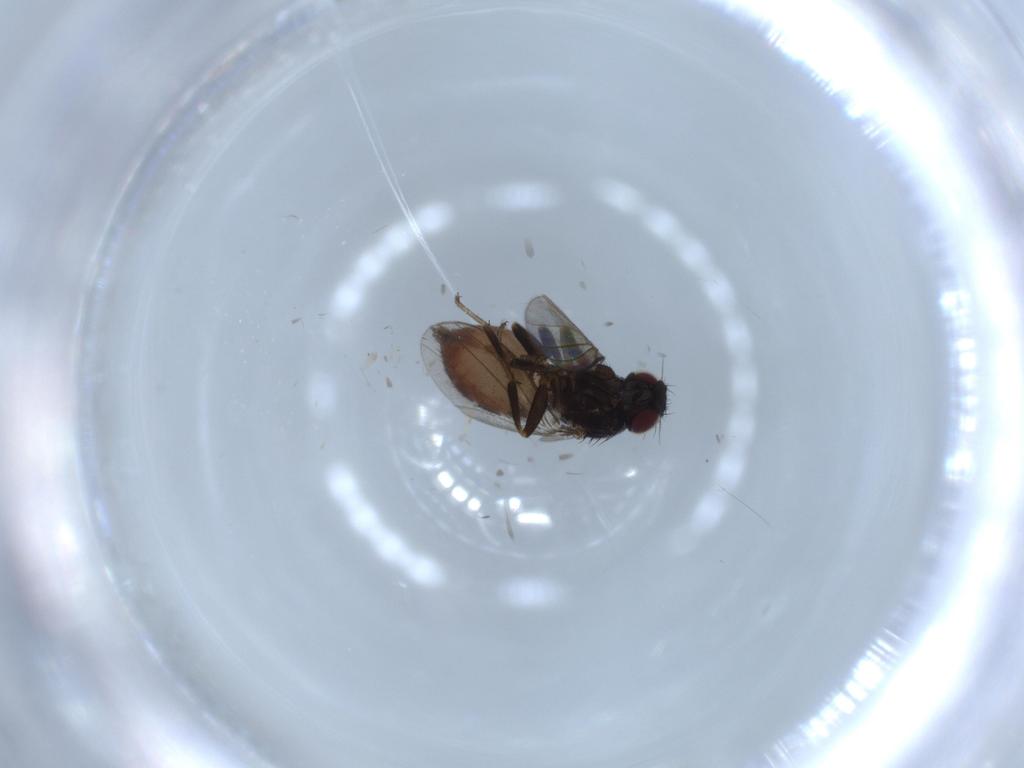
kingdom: Animalia
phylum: Arthropoda
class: Insecta
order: Diptera
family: Milichiidae
